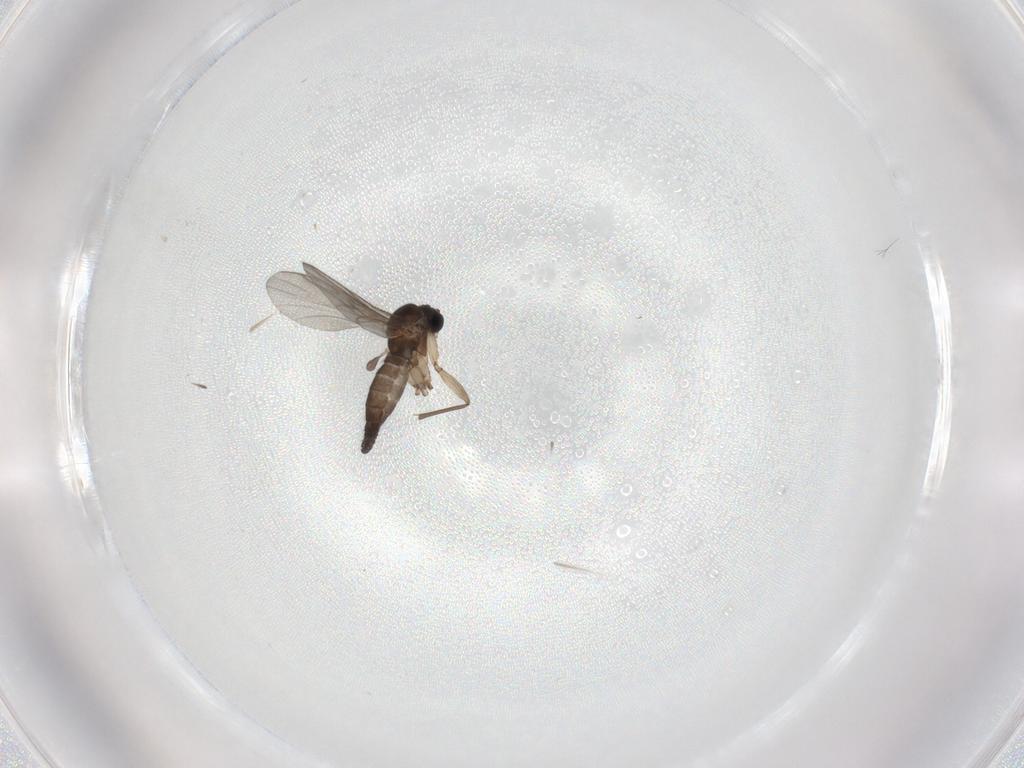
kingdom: Animalia
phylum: Arthropoda
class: Insecta
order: Diptera
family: Sciaridae
